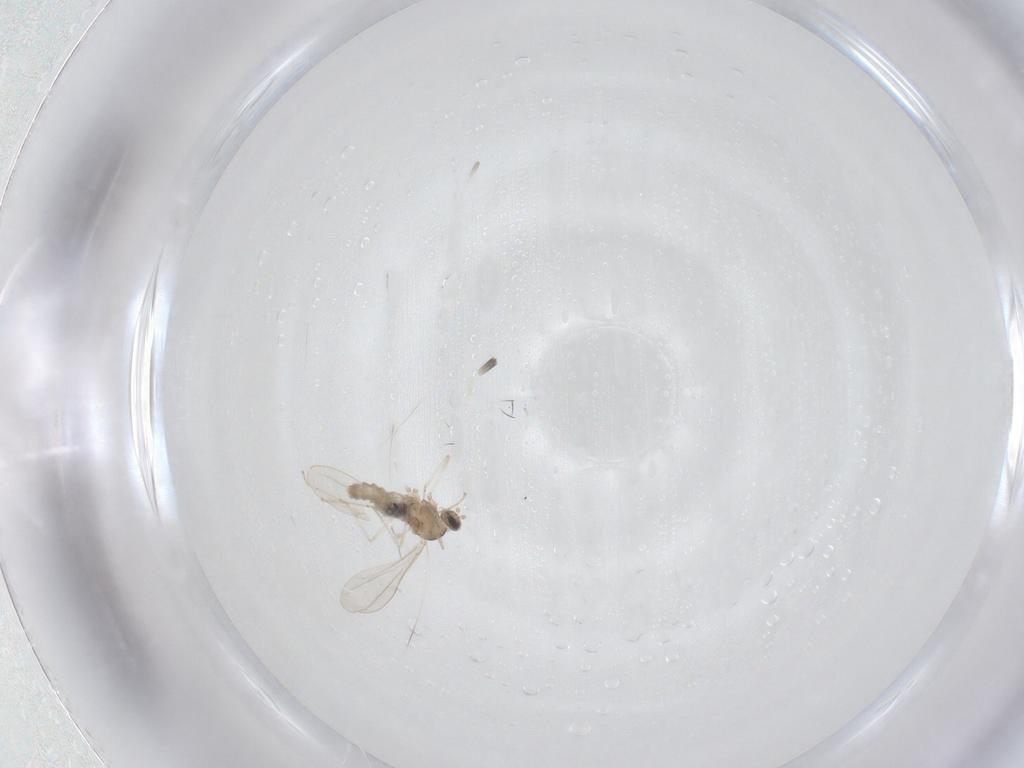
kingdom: Animalia
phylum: Arthropoda
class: Insecta
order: Diptera
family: Cecidomyiidae
